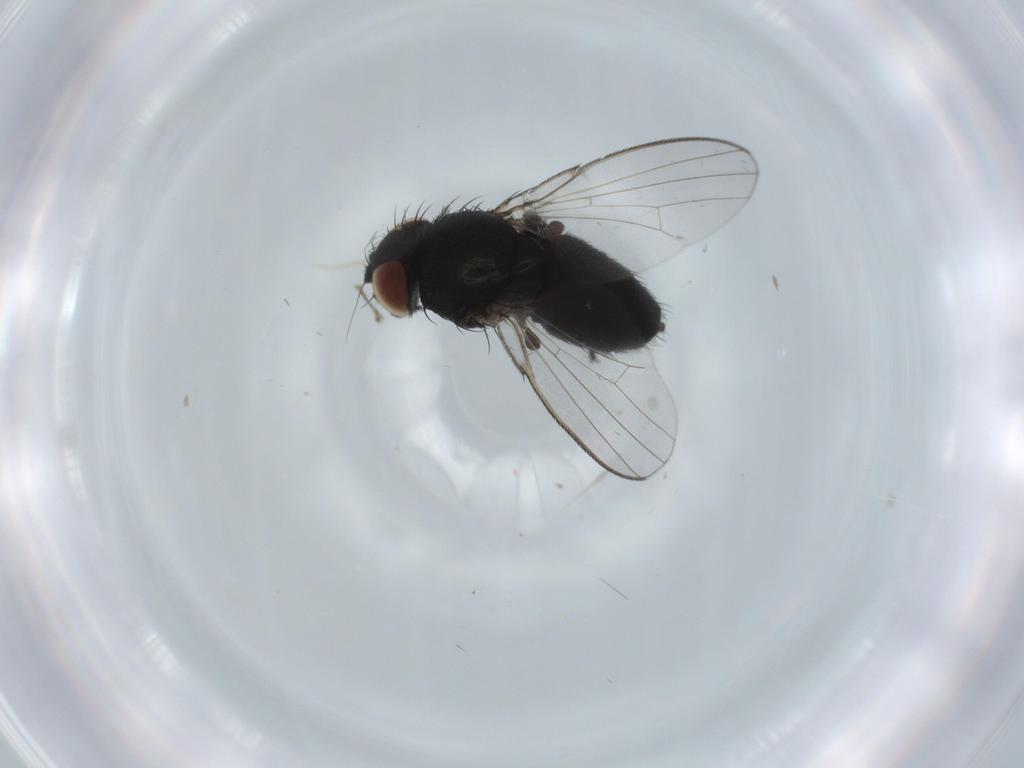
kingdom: Animalia
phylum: Arthropoda
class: Insecta
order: Diptera
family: Milichiidae
